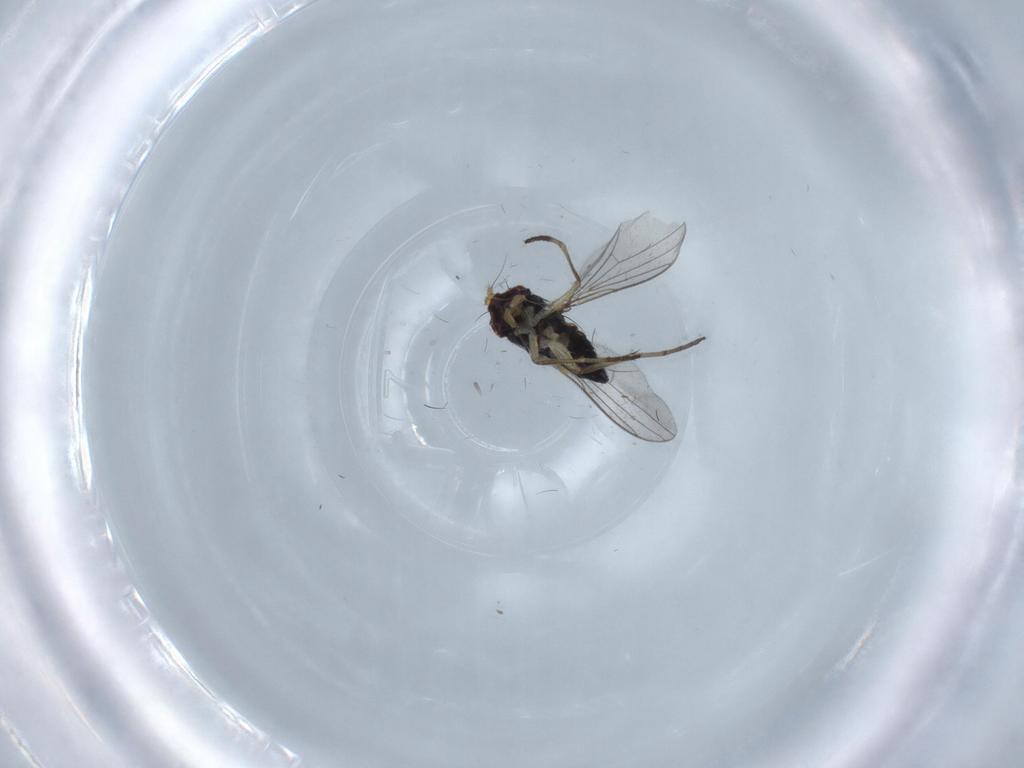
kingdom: Animalia
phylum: Arthropoda
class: Insecta
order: Diptera
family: Dolichopodidae
